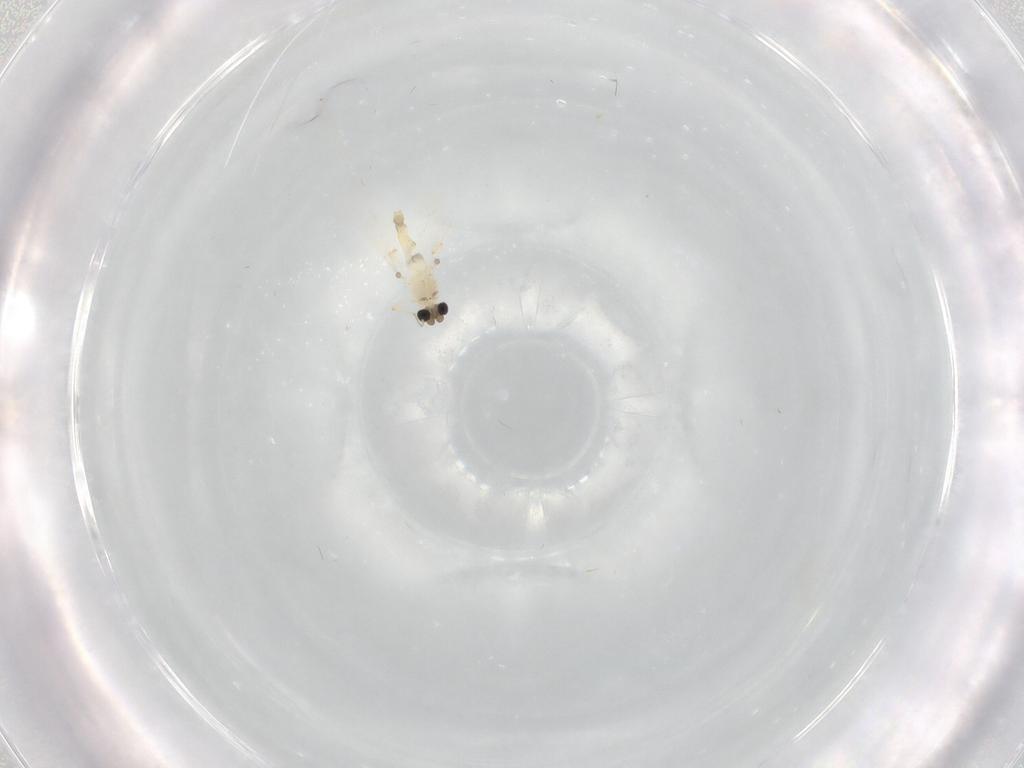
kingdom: Animalia
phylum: Arthropoda
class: Insecta
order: Diptera
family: Chironomidae
